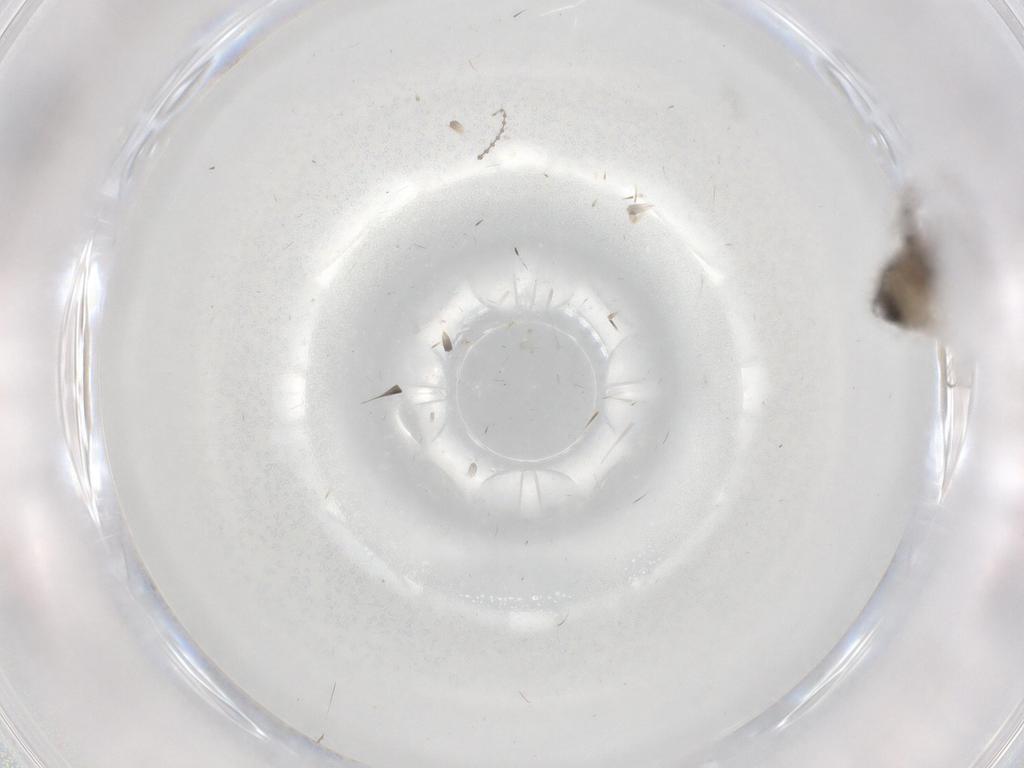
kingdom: Animalia
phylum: Arthropoda
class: Insecta
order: Diptera
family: Psychodidae
